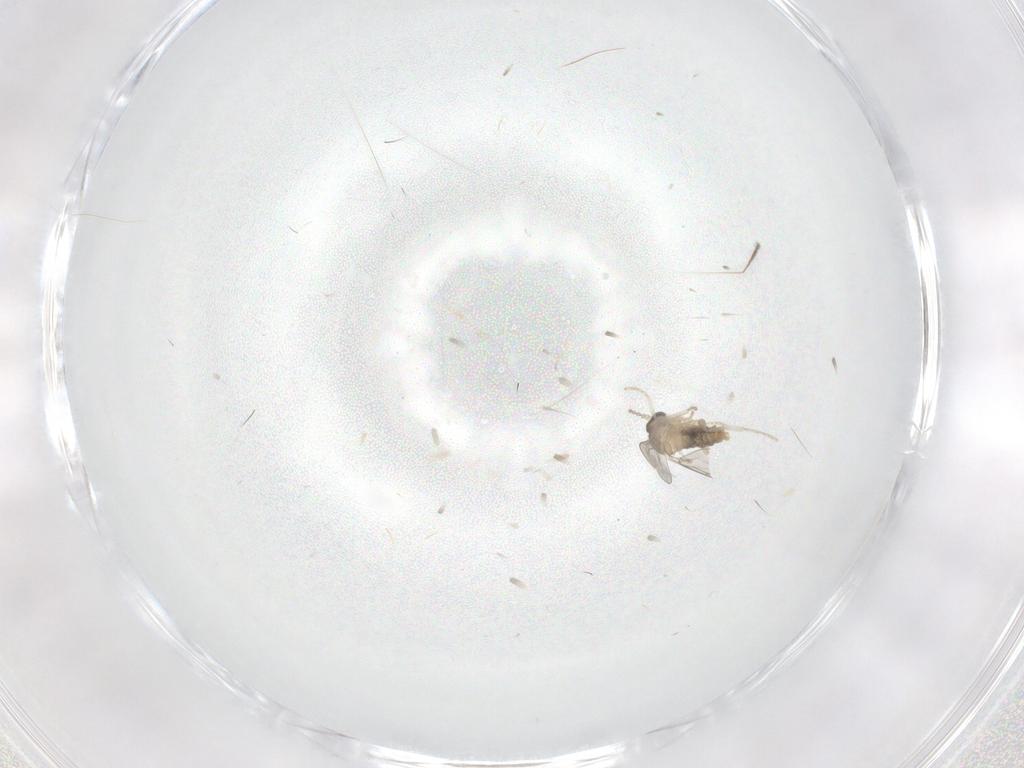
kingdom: Animalia
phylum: Arthropoda
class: Insecta
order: Diptera
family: Cecidomyiidae
